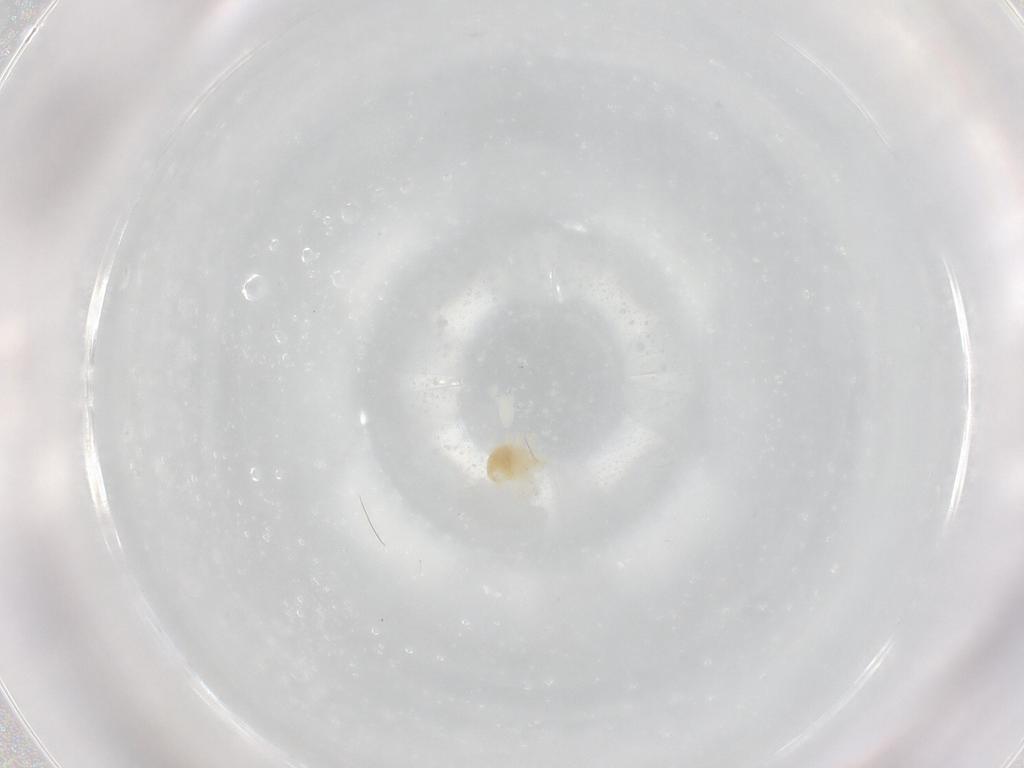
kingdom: Animalia
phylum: Arthropoda
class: Arachnida
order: Trombidiformes
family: Anystidae
